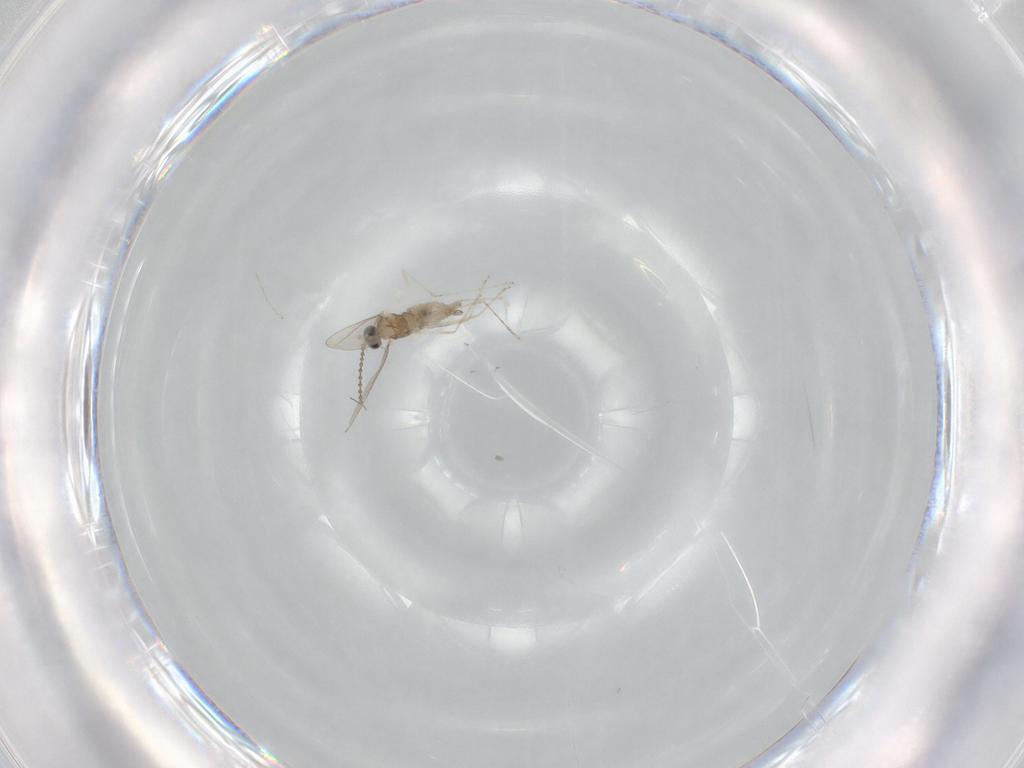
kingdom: Animalia
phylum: Arthropoda
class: Insecta
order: Diptera
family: Cecidomyiidae
